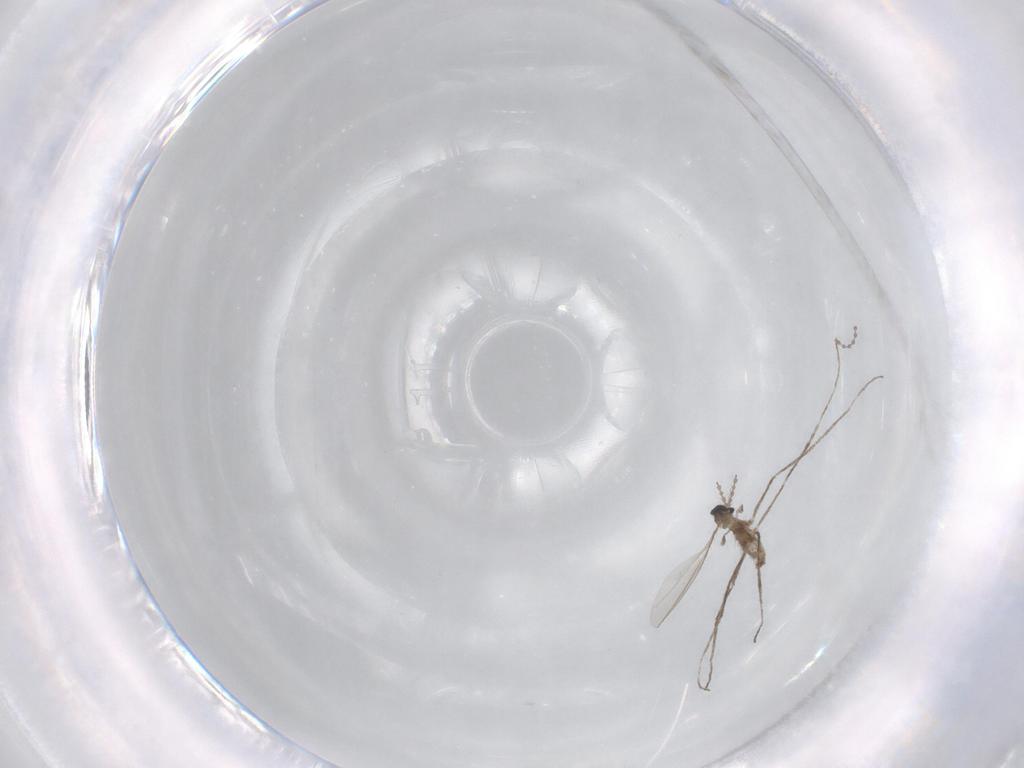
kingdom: Animalia
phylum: Arthropoda
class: Insecta
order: Diptera
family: Cecidomyiidae
